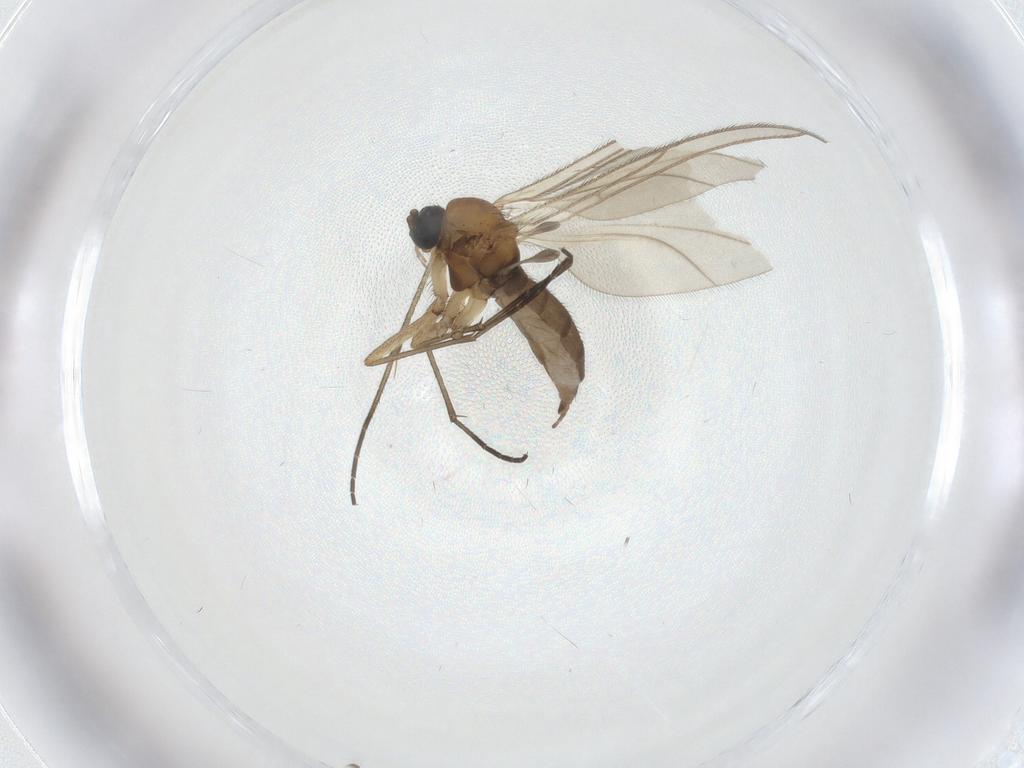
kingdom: Animalia
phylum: Arthropoda
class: Insecta
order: Diptera
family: Sciaridae
